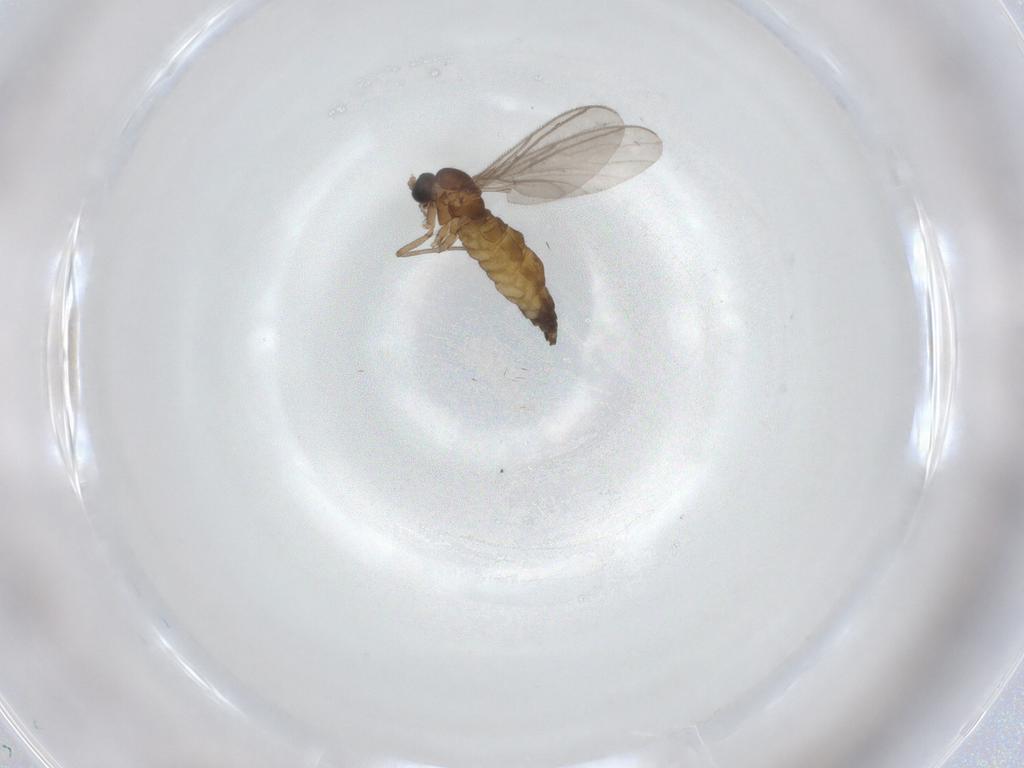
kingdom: Animalia
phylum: Arthropoda
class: Insecta
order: Diptera
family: Sciaridae
